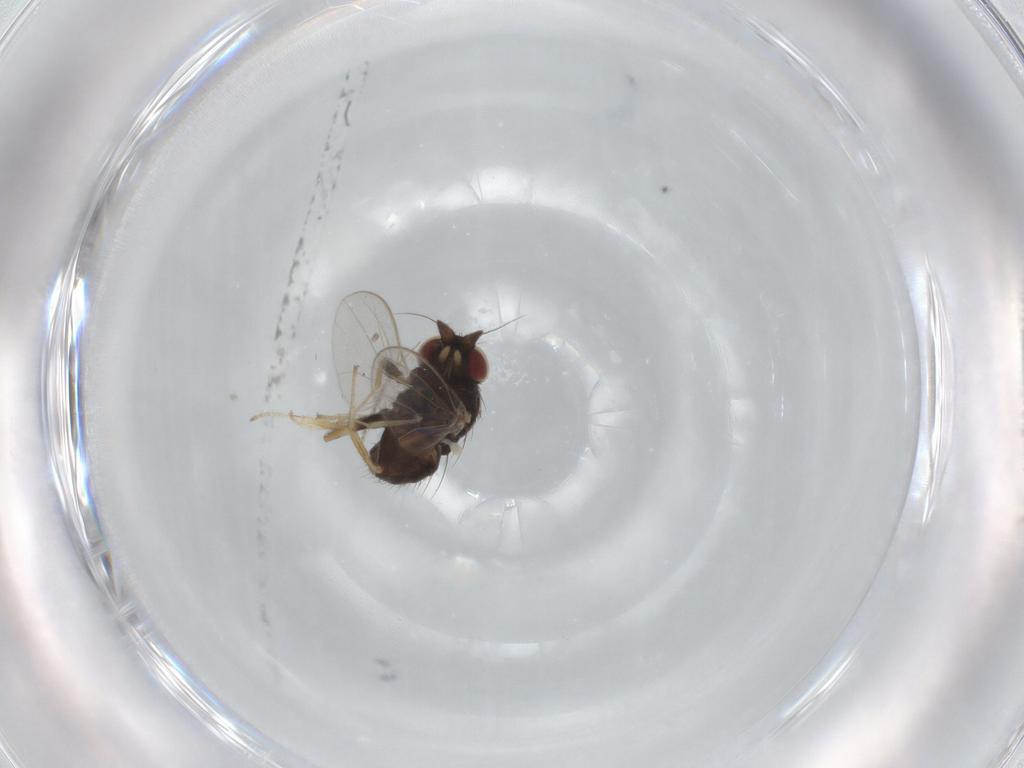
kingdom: Animalia
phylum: Arthropoda
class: Insecta
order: Diptera
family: Milichiidae
